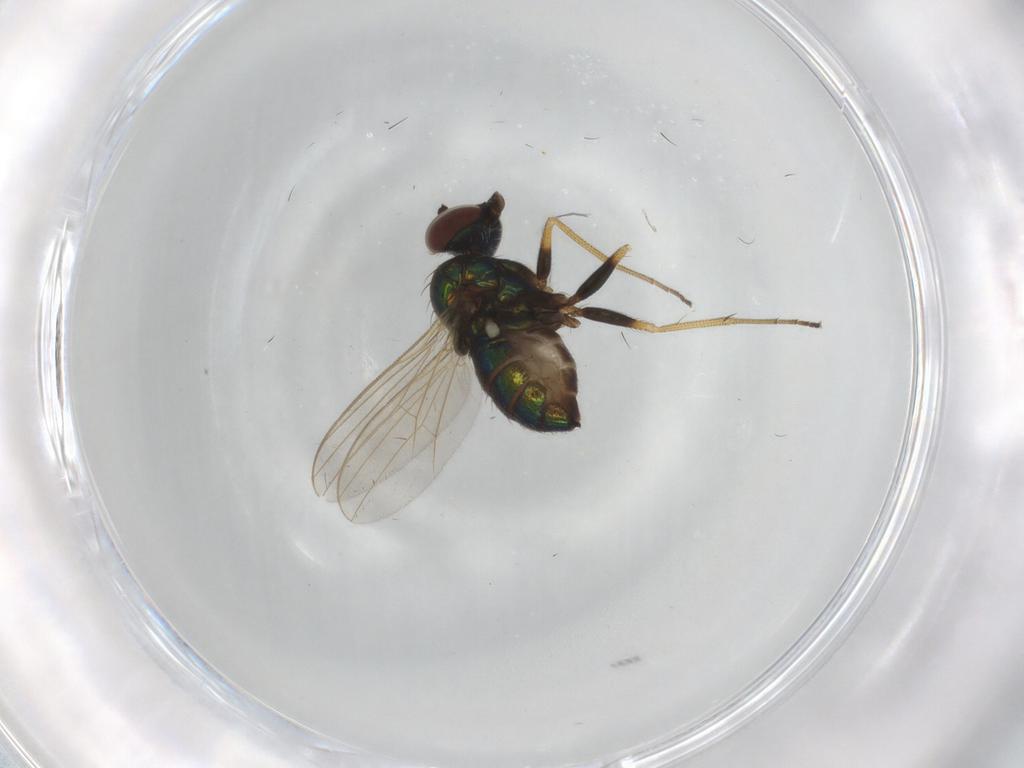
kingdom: Animalia
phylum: Arthropoda
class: Insecta
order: Diptera
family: Dolichopodidae
